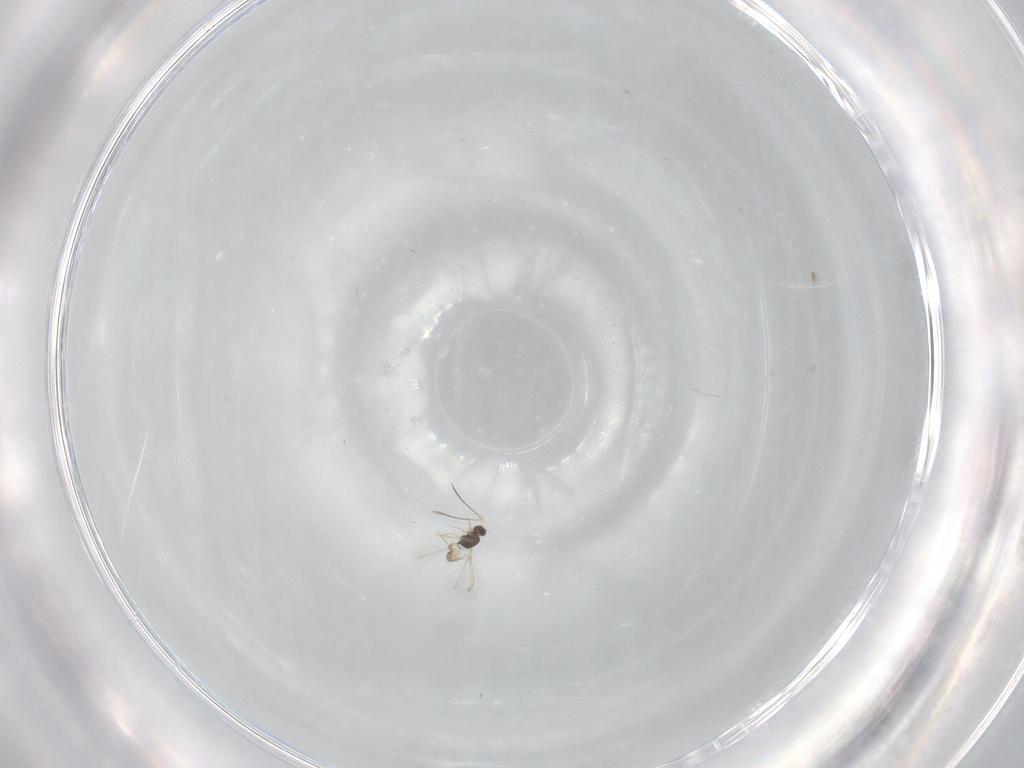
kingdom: Animalia
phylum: Arthropoda
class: Insecta
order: Hymenoptera
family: Mymaridae
